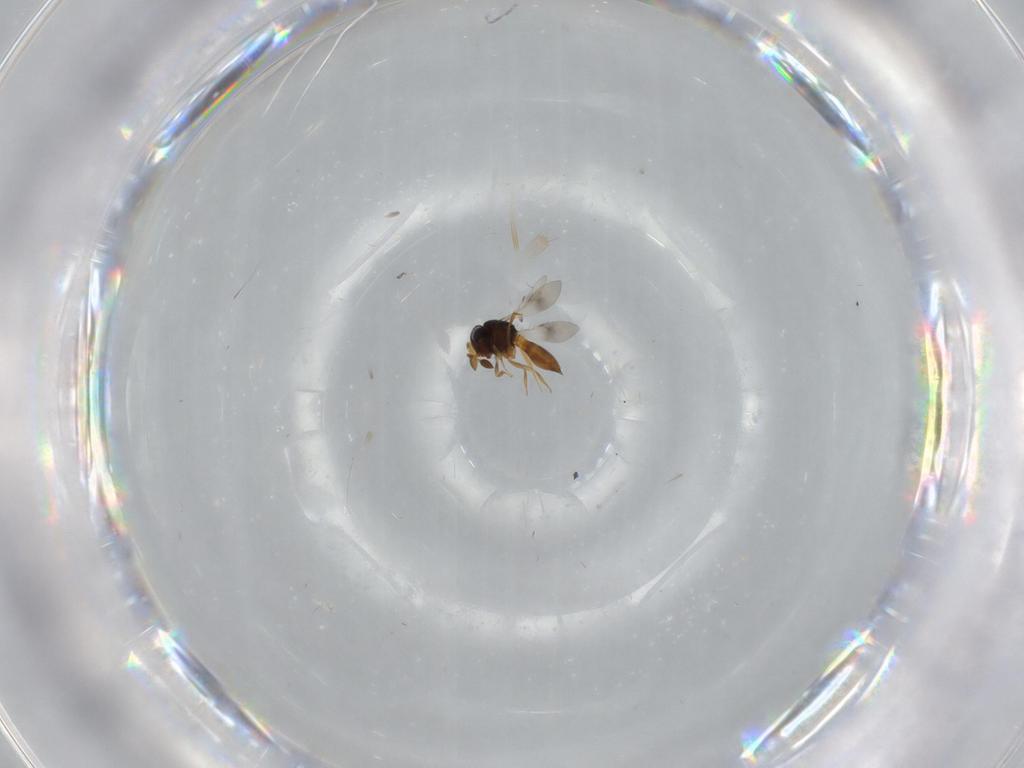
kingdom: Animalia
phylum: Arthropoda
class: Insecta
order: Hymenoptera
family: Scelionidae
